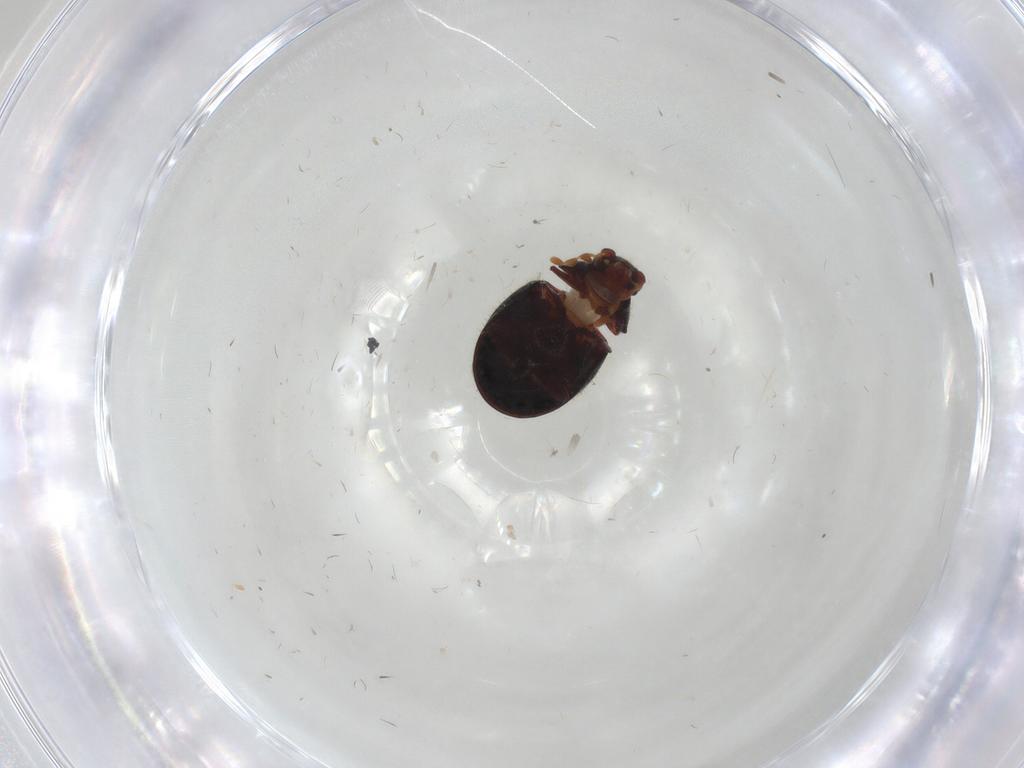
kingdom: Animalia
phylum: Arthropoda
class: Insecta
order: Coleoptera
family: Ptinidae
